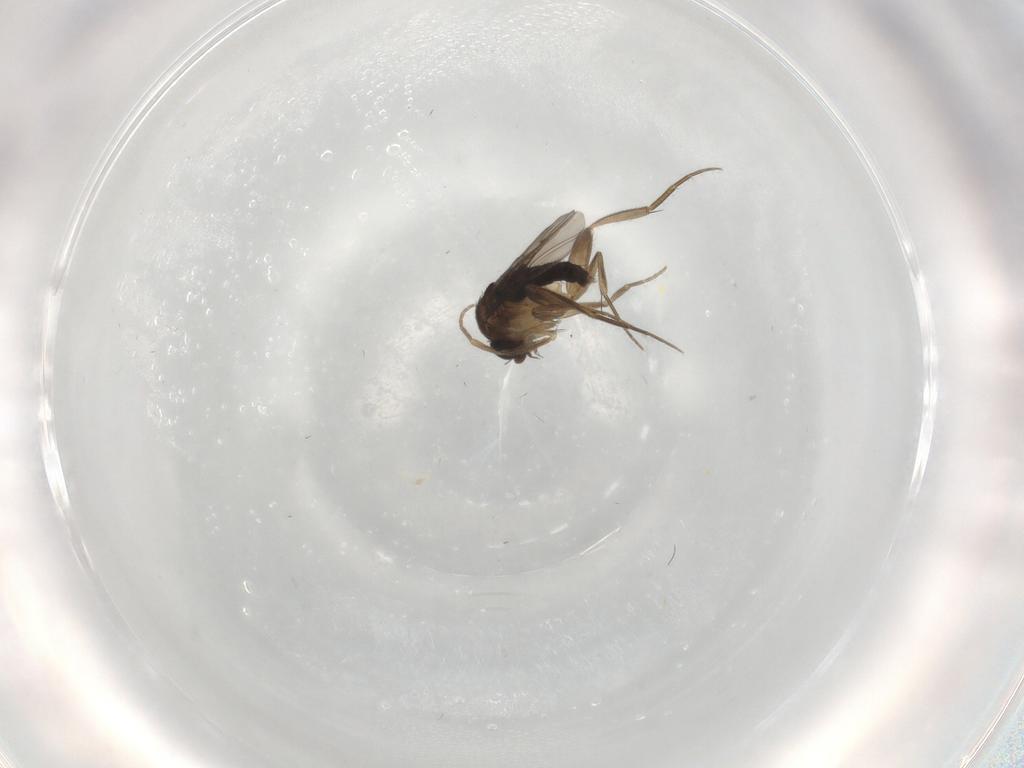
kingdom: Animalia
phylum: Arthropoda
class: Insecta
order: Diptera
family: Phoridae
